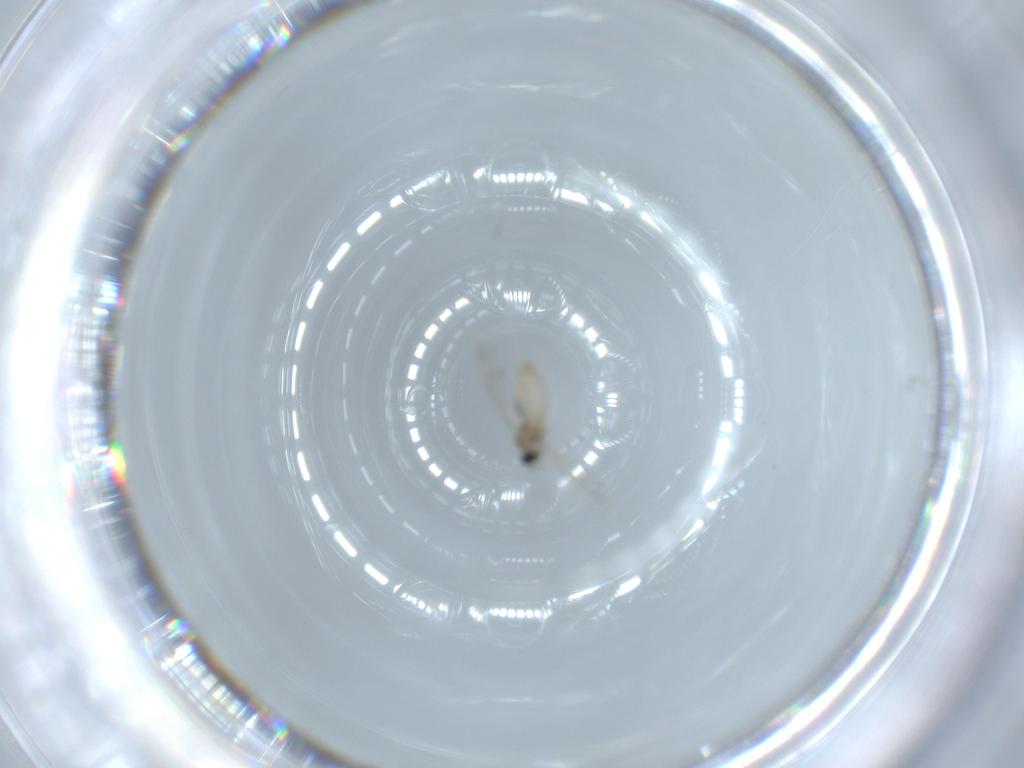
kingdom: Animalia
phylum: Arthropoda
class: Insecta
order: Diptera
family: Cecidomyiidae
